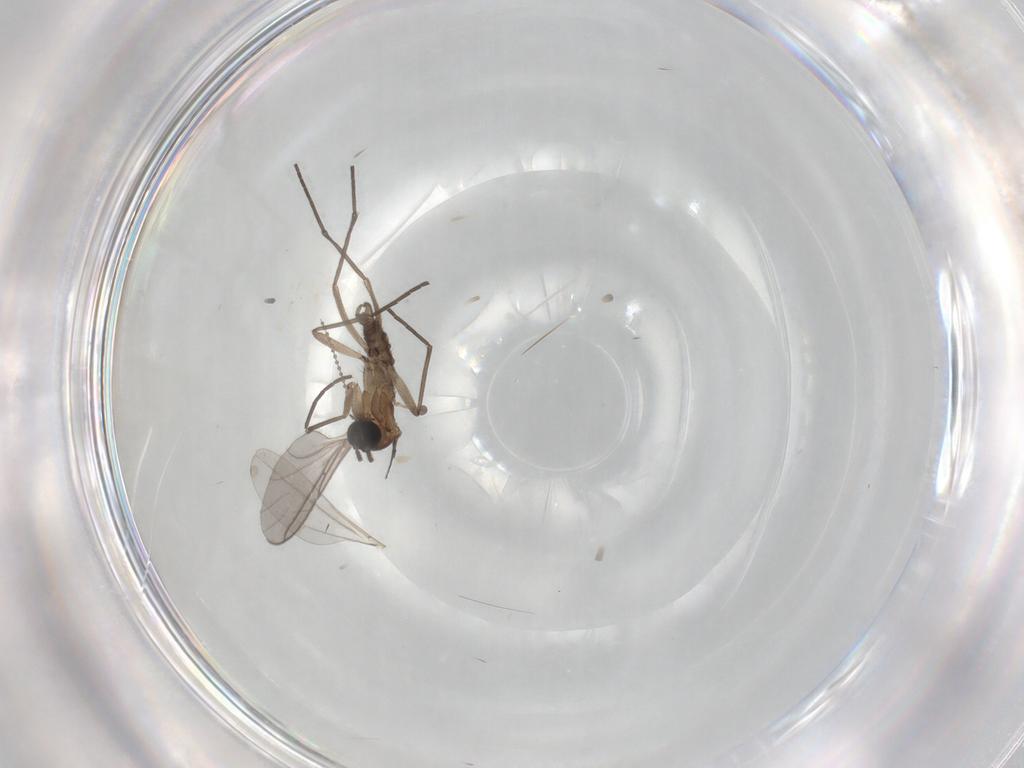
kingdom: Animalia
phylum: Arthropoda
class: Insecta
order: Diptera
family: Sciaridae
